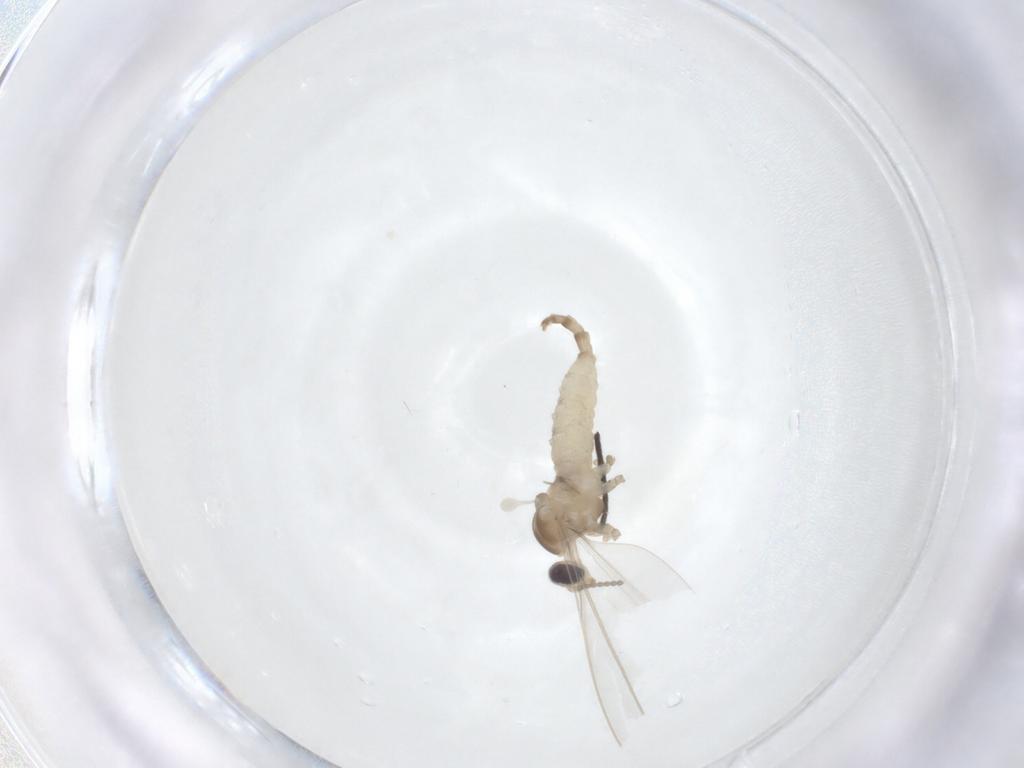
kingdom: Animalia
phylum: Arthropoda
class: Insecta
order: Diptera
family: Cecidomyiidae
